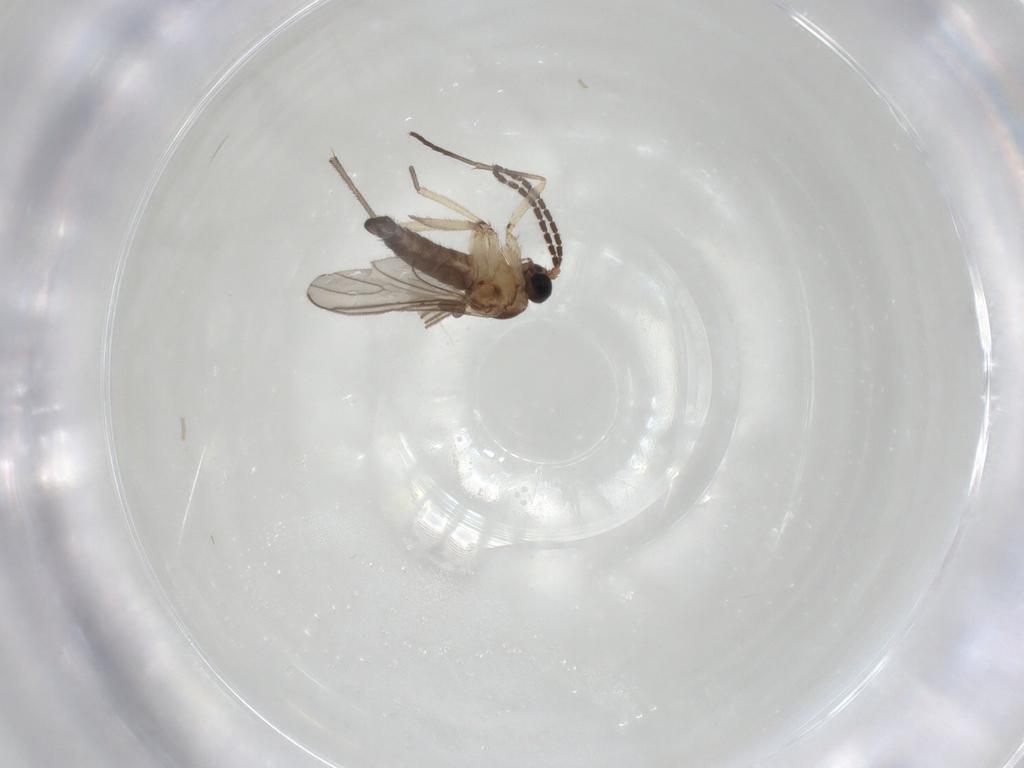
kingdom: Animalia
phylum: Arthropoda
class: Insecta
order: Diptera
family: Sciaridae
